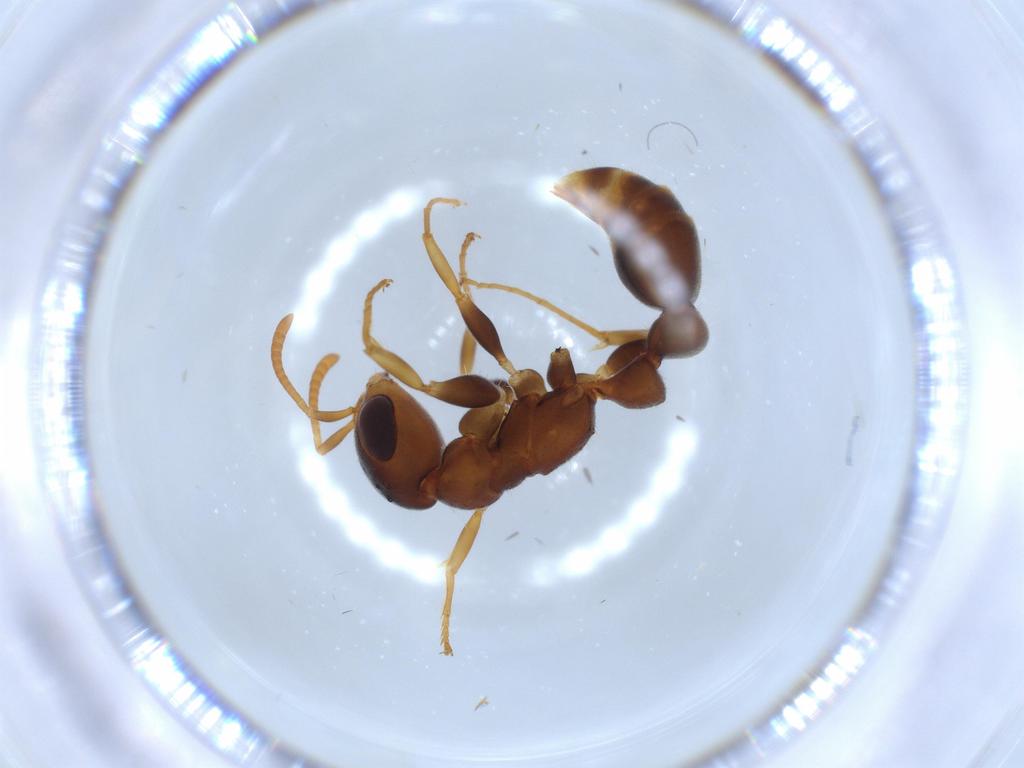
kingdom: Animalia
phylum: Arthropoda
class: Insecta
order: Hymenoptera
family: Formicidae
